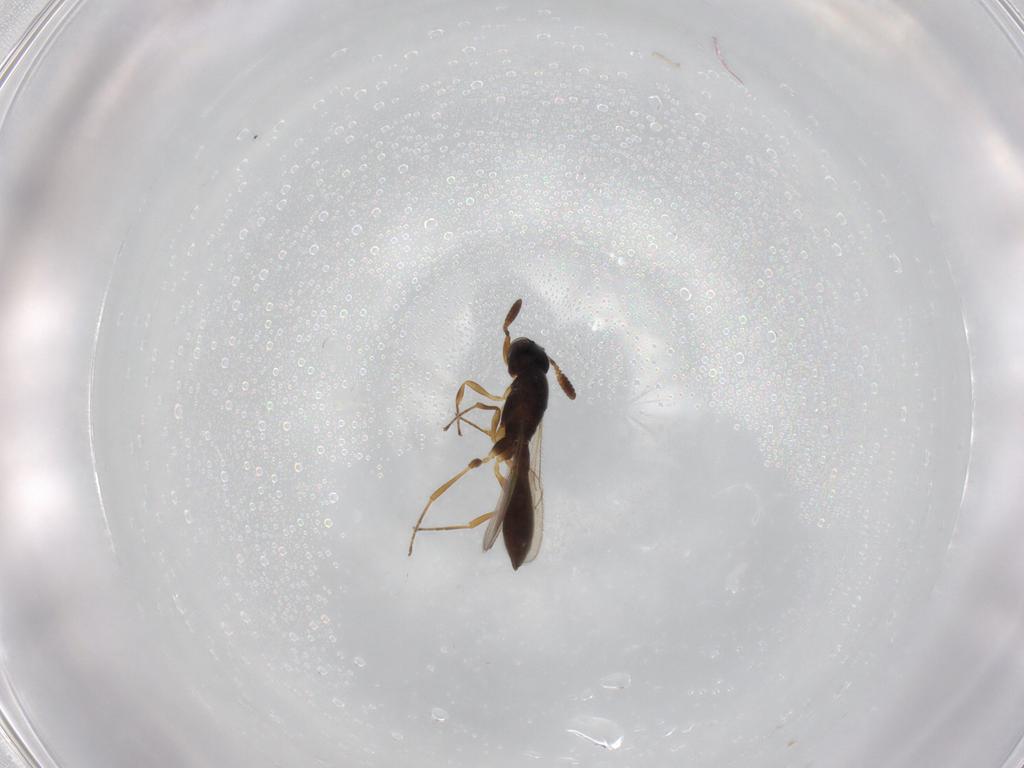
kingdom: Animalia
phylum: Arthropoda
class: Insecta
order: Hymenoptera
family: Scelionidae
